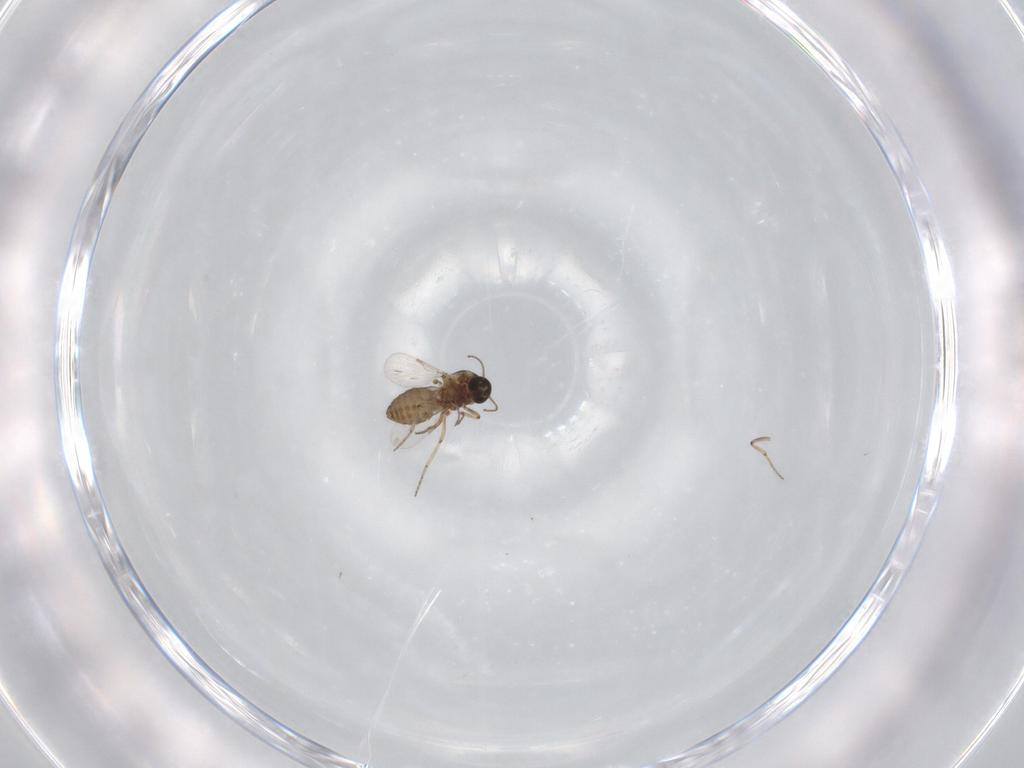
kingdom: Animalia
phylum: Arthropoda
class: Insecta
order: Diptera
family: Ceratopogonidae
